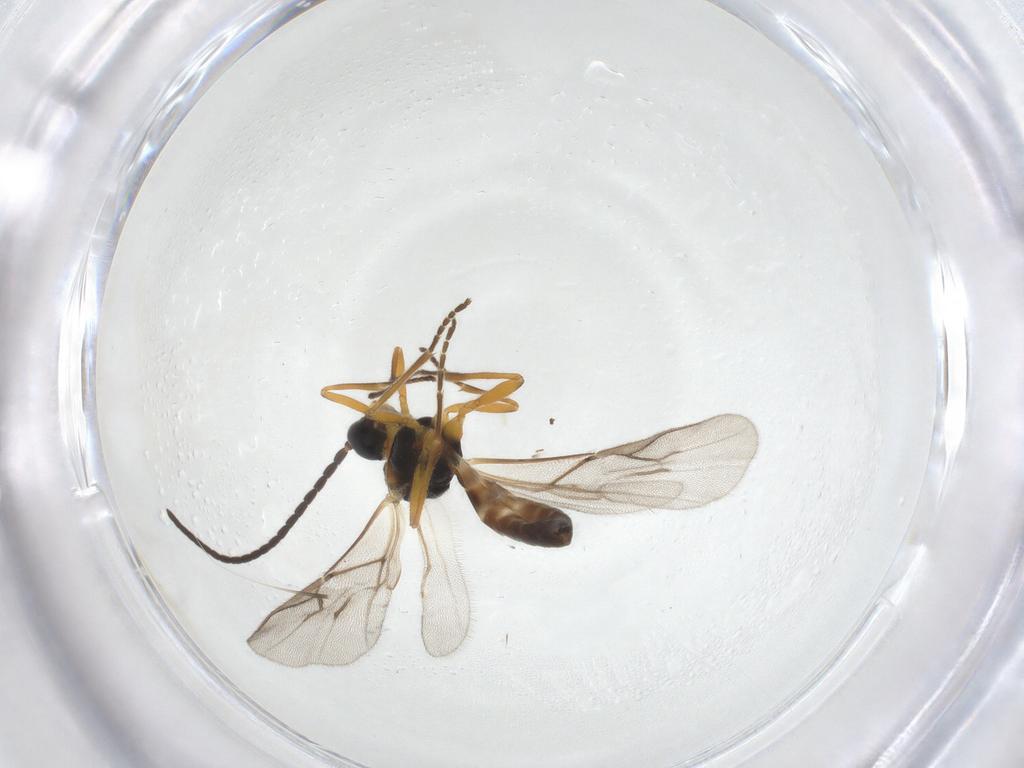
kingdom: Animalia
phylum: Arthropoda
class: Insecta
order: Hymenoptera
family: Braconidae
